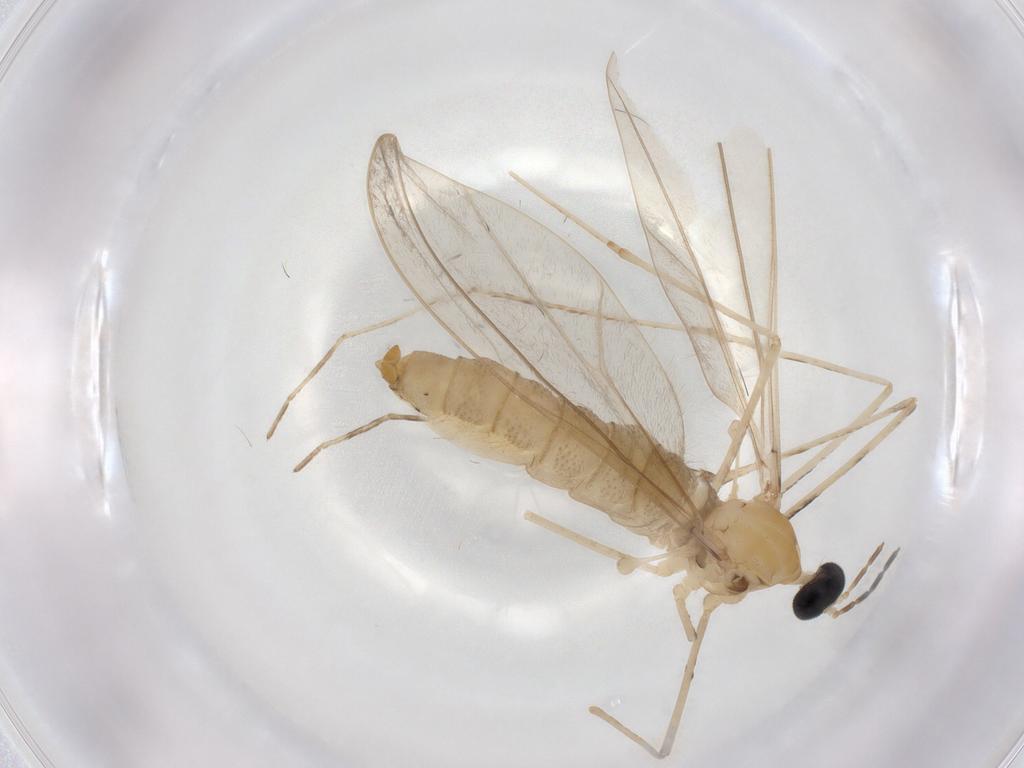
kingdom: Animalia
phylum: Arthropoda
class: Insecta
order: Diptera
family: Cecidomyiidae
